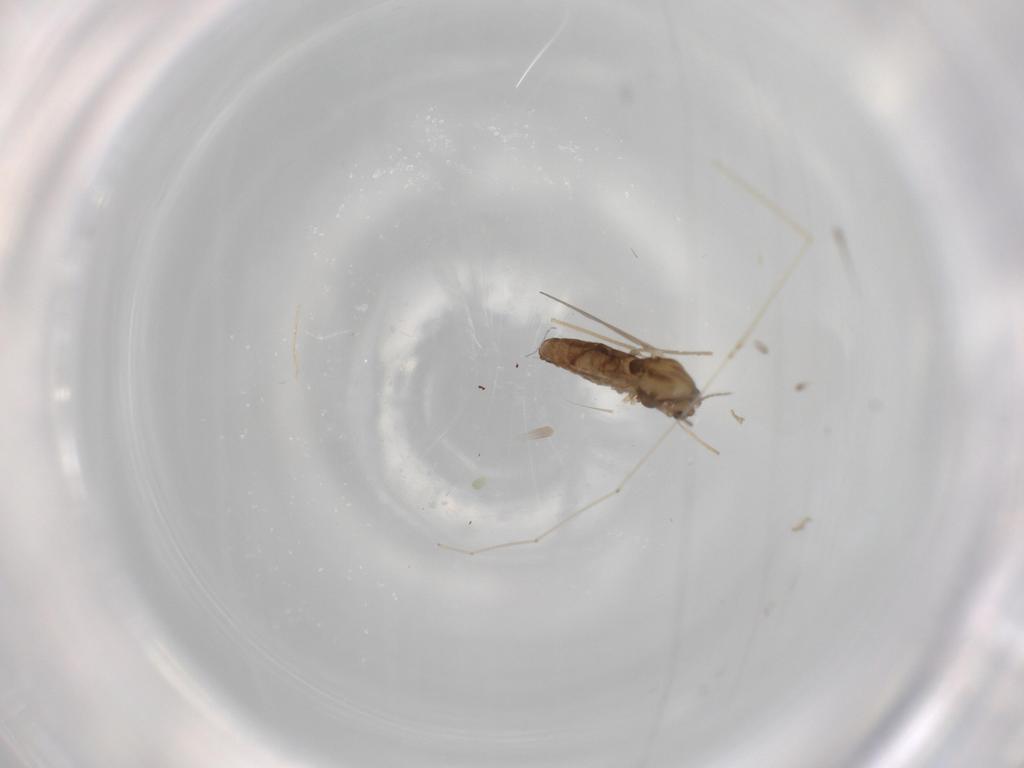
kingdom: Animalia
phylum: Arthropoda
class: Insecta
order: Diptera
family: Chironomidae
